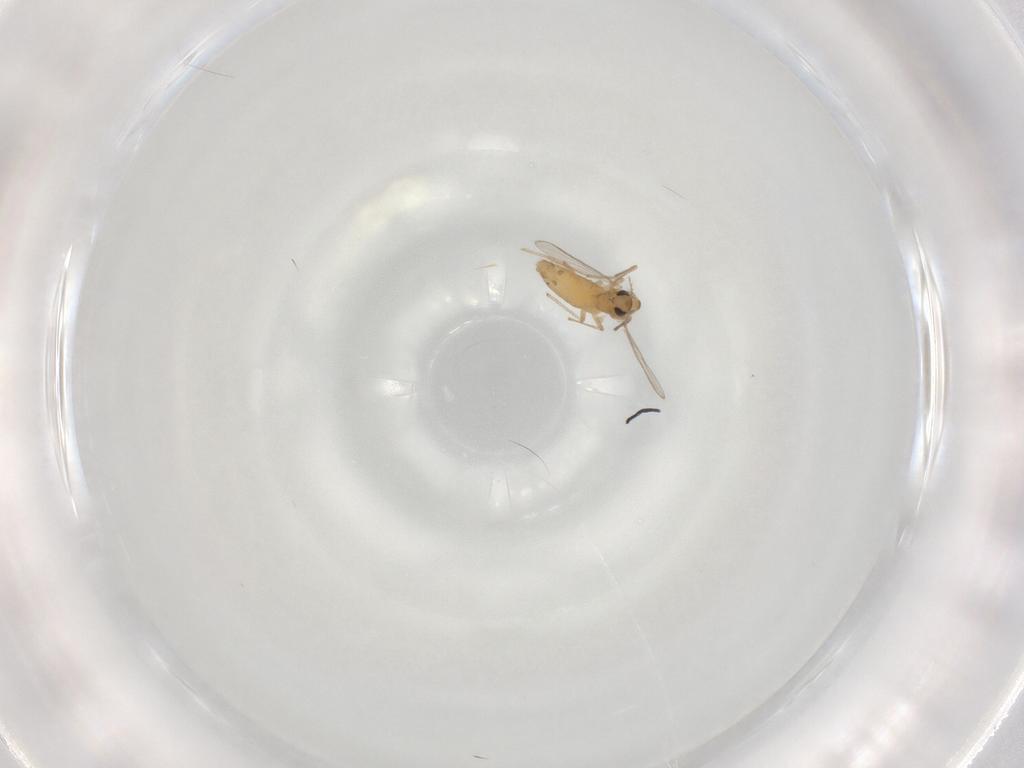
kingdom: Animalia
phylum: Arthropoda
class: Insecta
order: Diptera
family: Chironomidae
